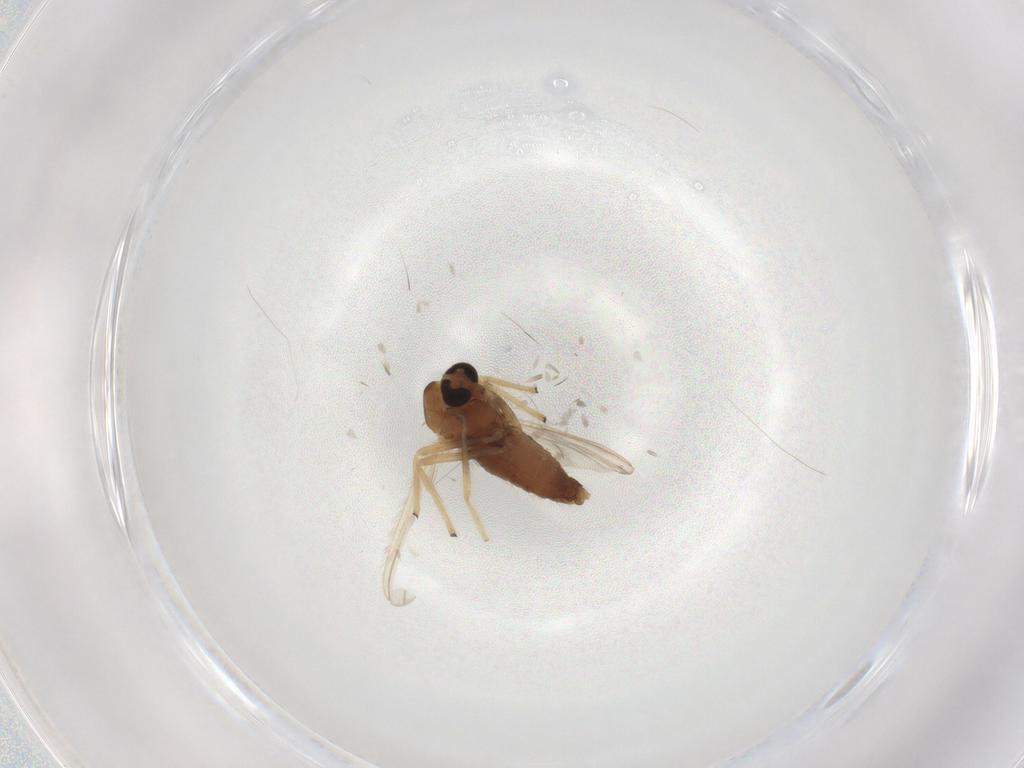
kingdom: Animalia
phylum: Arthropoda
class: Insecta
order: Diptera
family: Chironomidae
